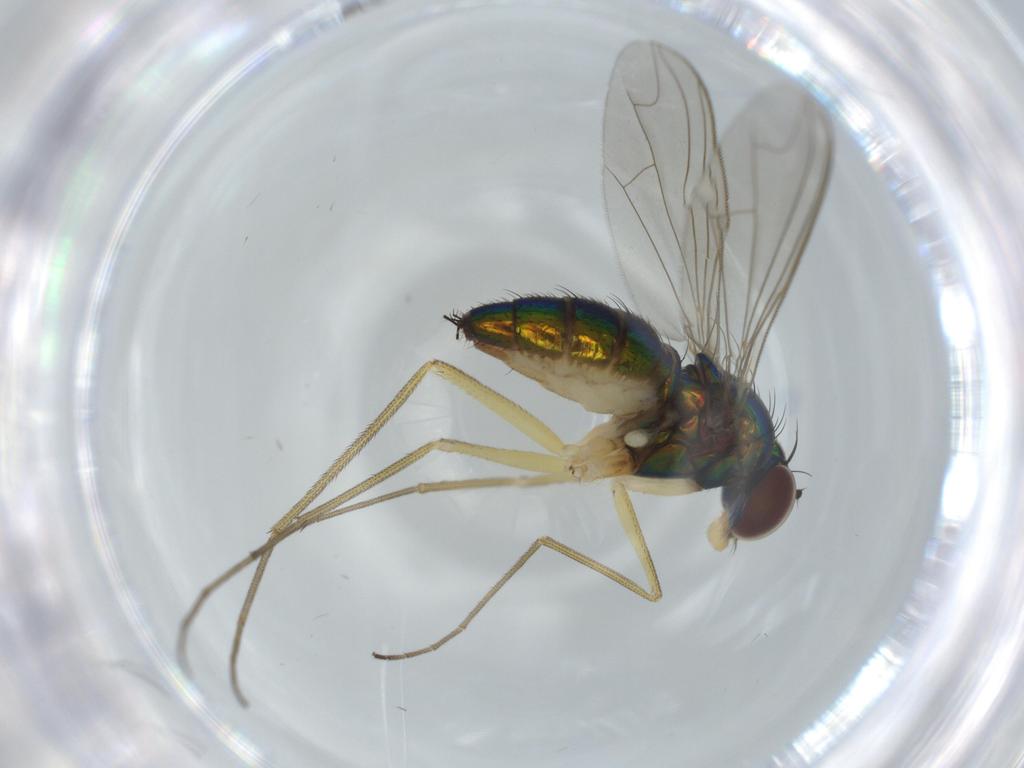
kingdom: Animalia
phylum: Arthropoda
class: Insecta
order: Diptera
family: Dolichopodidae
